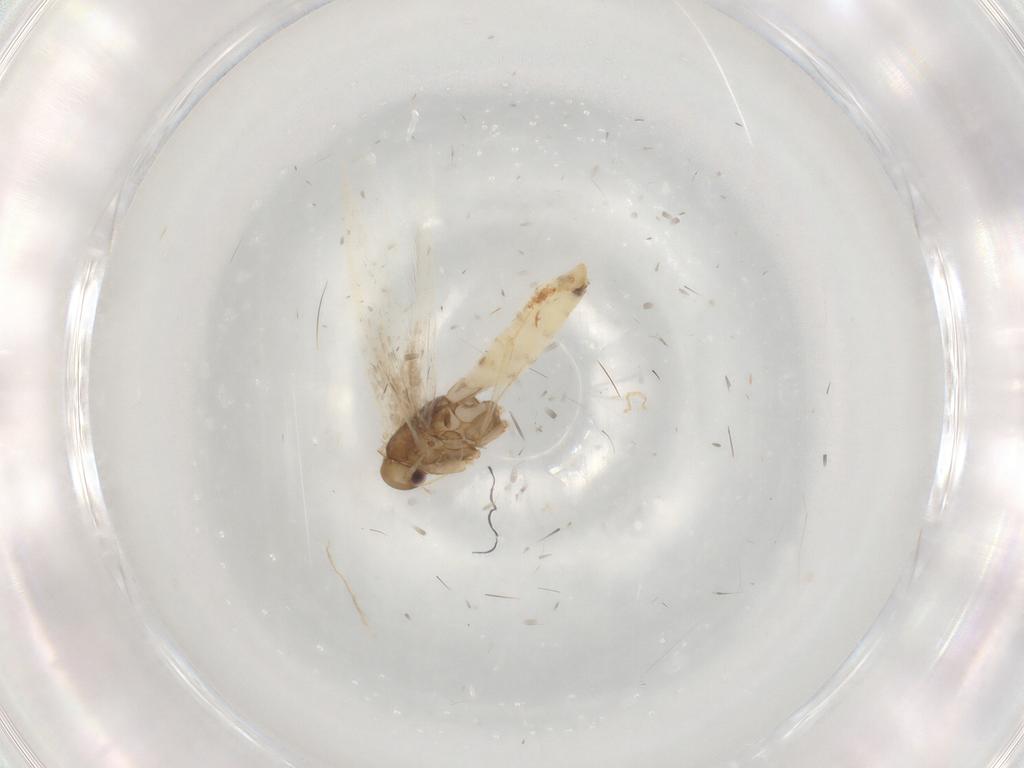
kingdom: Animalia
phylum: Arthropoda
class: Insecta
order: Lepidoptera
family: Gracillariidae
